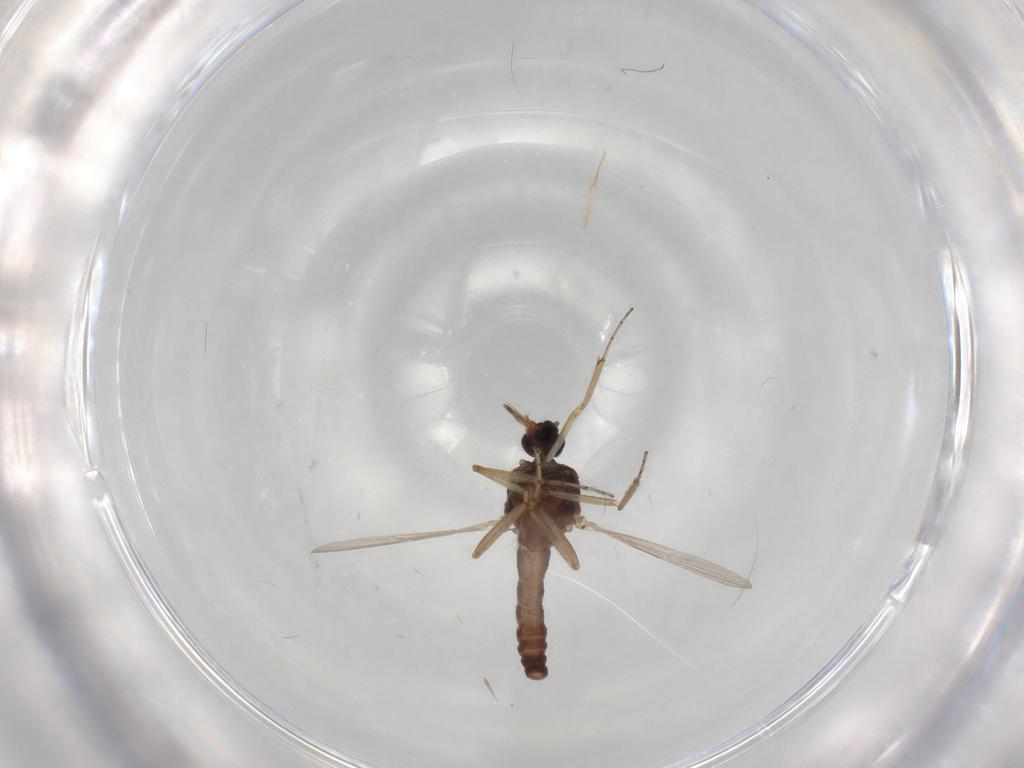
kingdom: Animalia
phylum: Arthropoda
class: Insecta
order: Diptera
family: Ceratopogonidae
